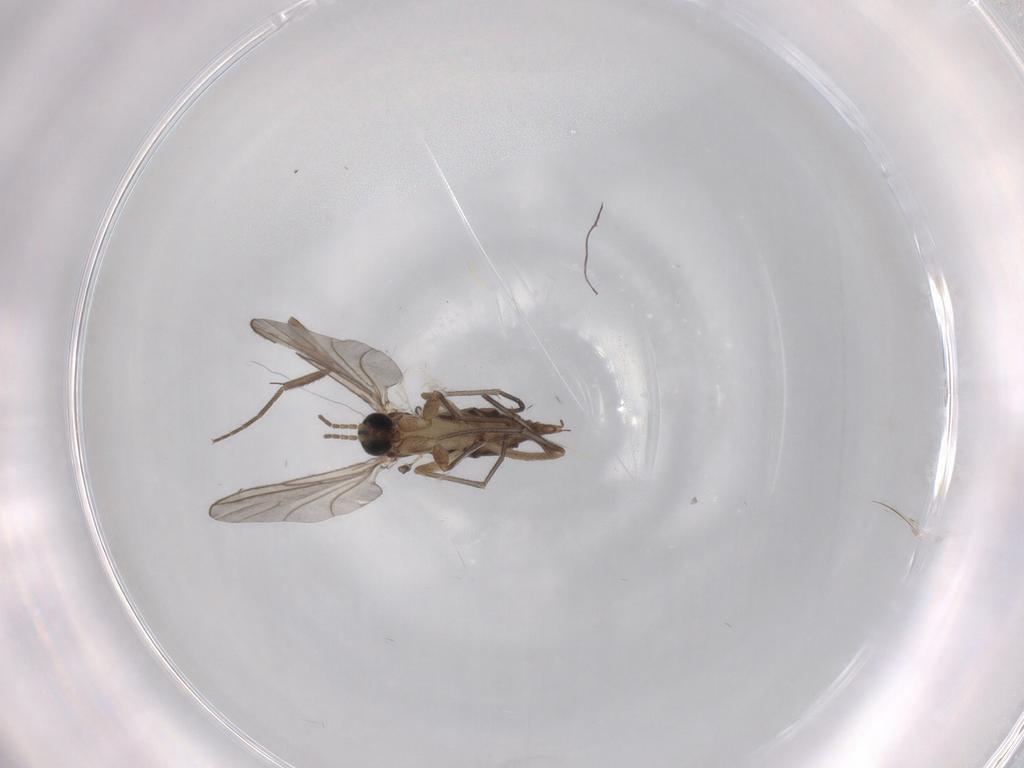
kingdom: Animalia
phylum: Arthropoda
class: Insecta
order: Diptera
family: Phoridae
